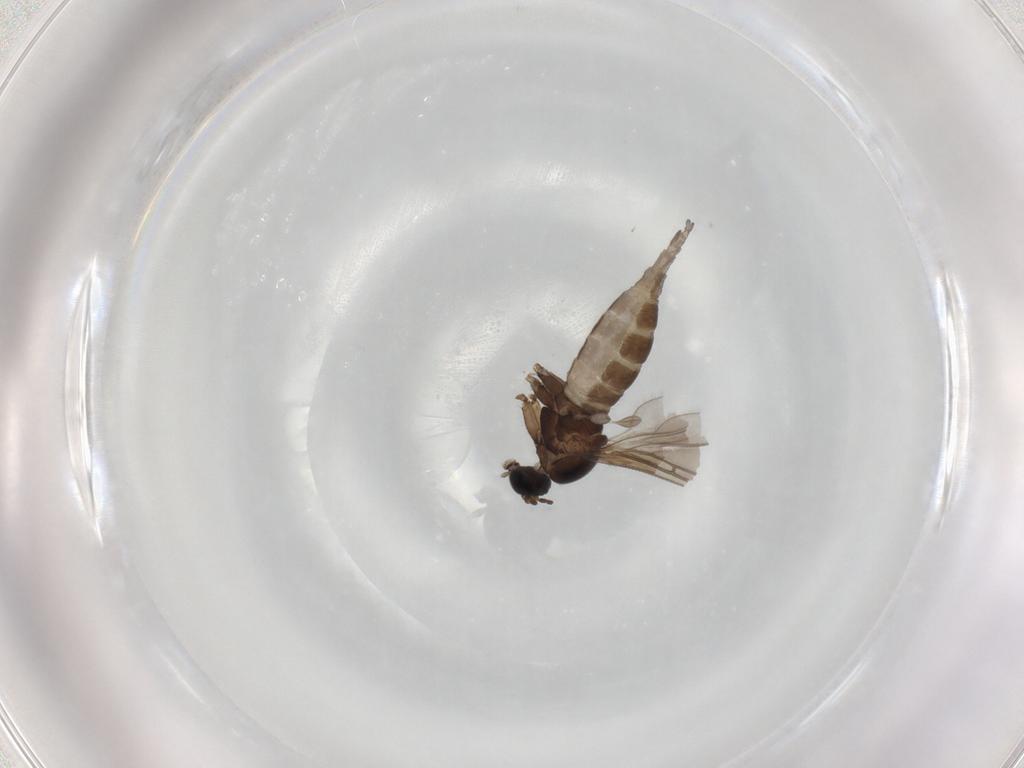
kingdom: Animalia
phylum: Arthropoda
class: Insecta
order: Diptera
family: Sciaridae
